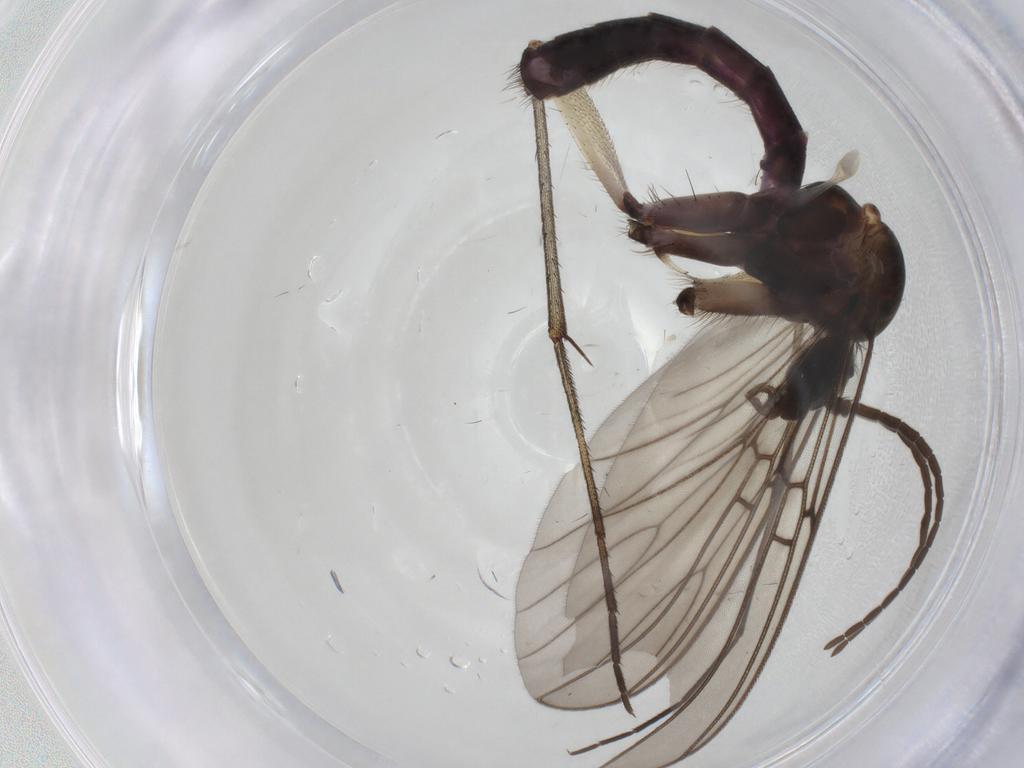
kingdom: Animalia
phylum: Arthropoda
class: Insecta
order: Diptera
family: Mycetophilidae
